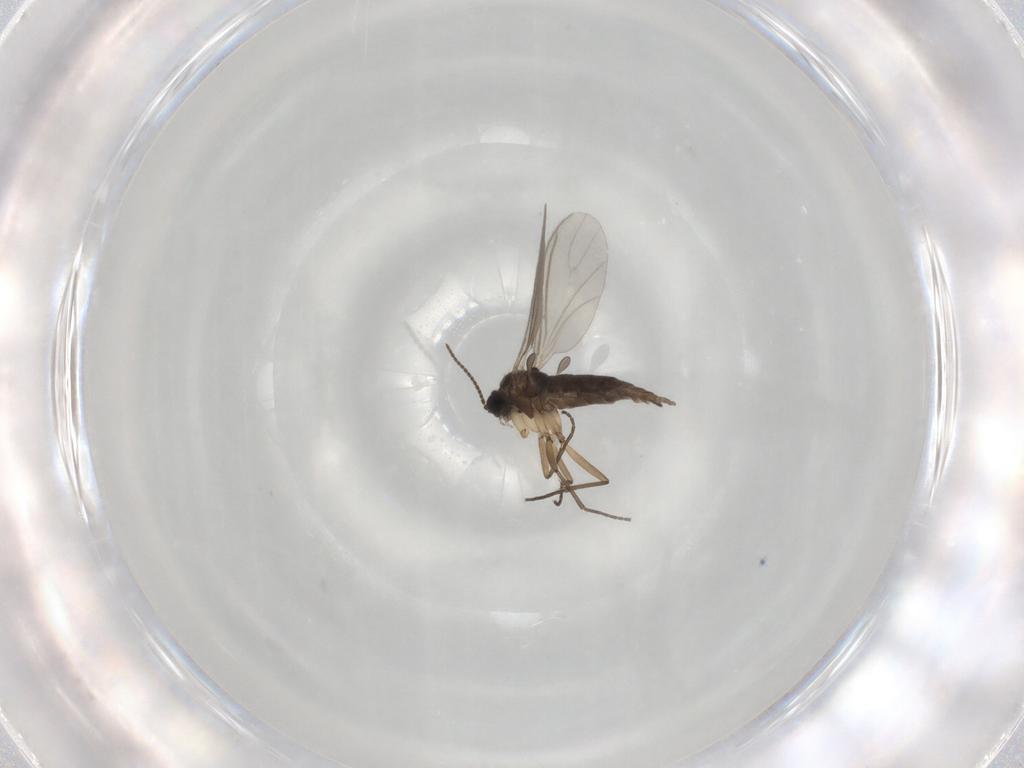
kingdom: Animalia
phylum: Arthropoda
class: Insecta
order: Diptera
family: Sciaridae
